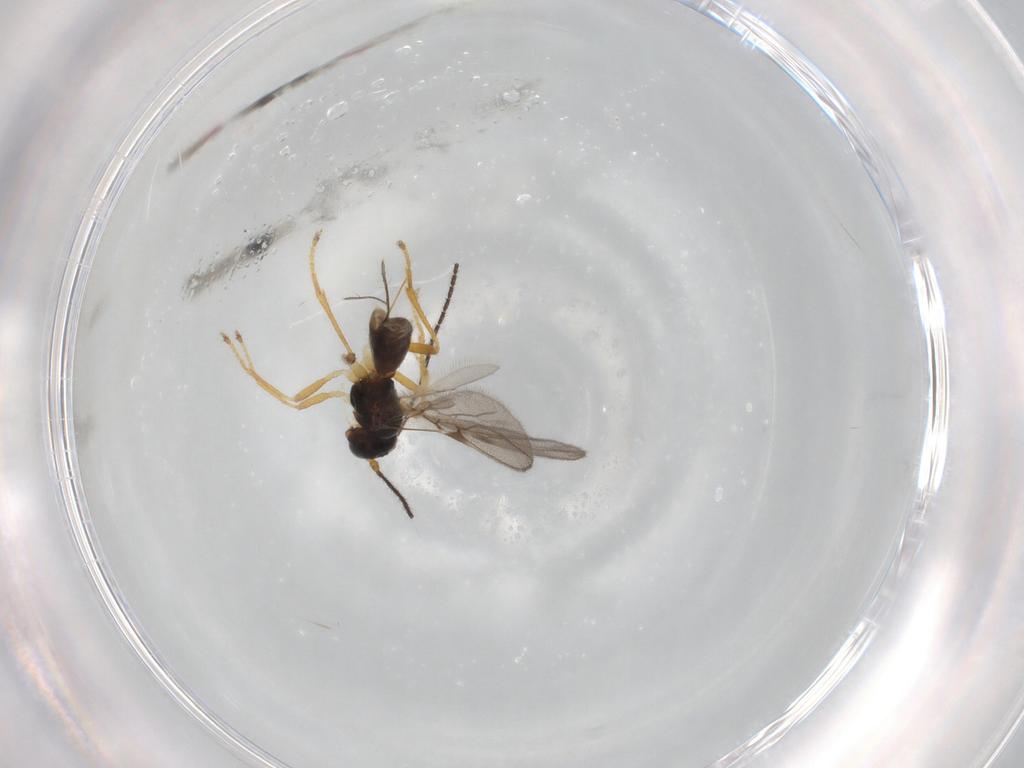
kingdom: Animalia
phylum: Arthropoda
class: Insecta
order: Hymenoptera
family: Braconidae
